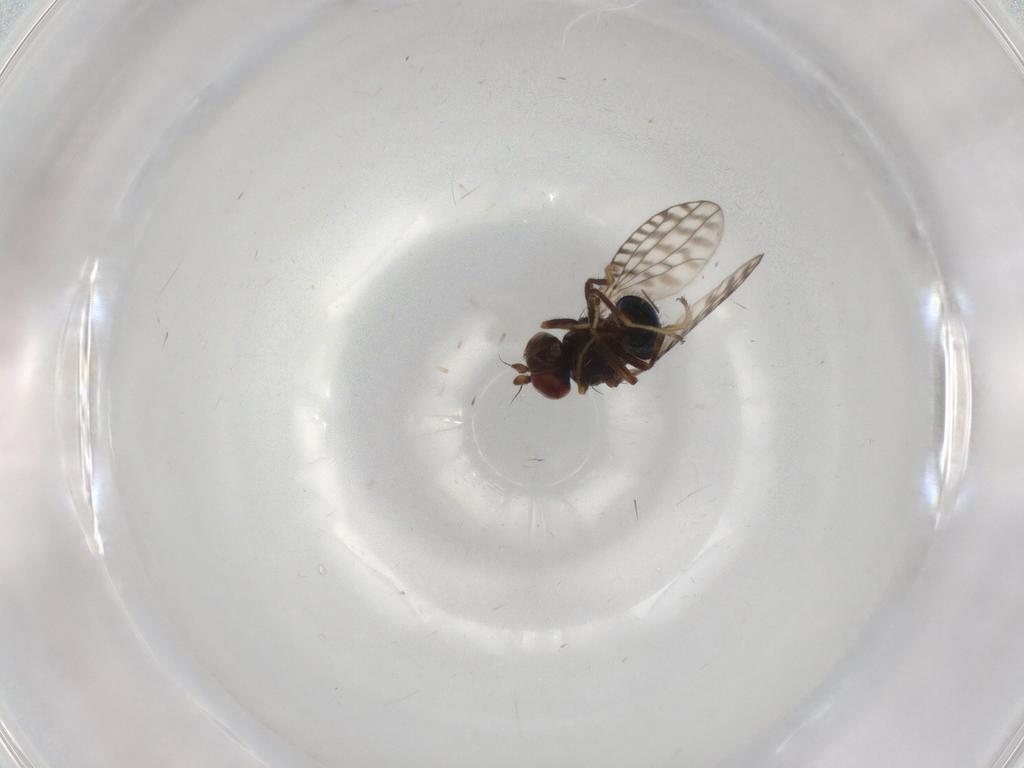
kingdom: Animalia
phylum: Arthropoda
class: Insecta
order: Diptera
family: Ephydridae
